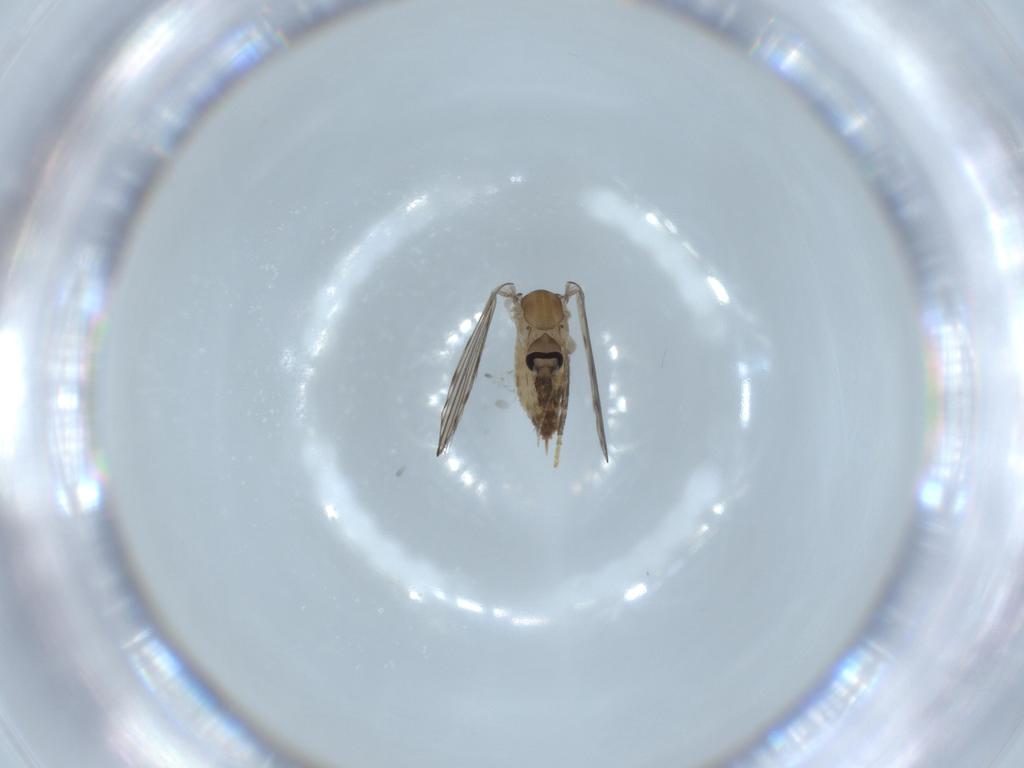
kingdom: Animalia
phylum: Arthropoda
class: Insecta
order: Diptera
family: Psychodidae
